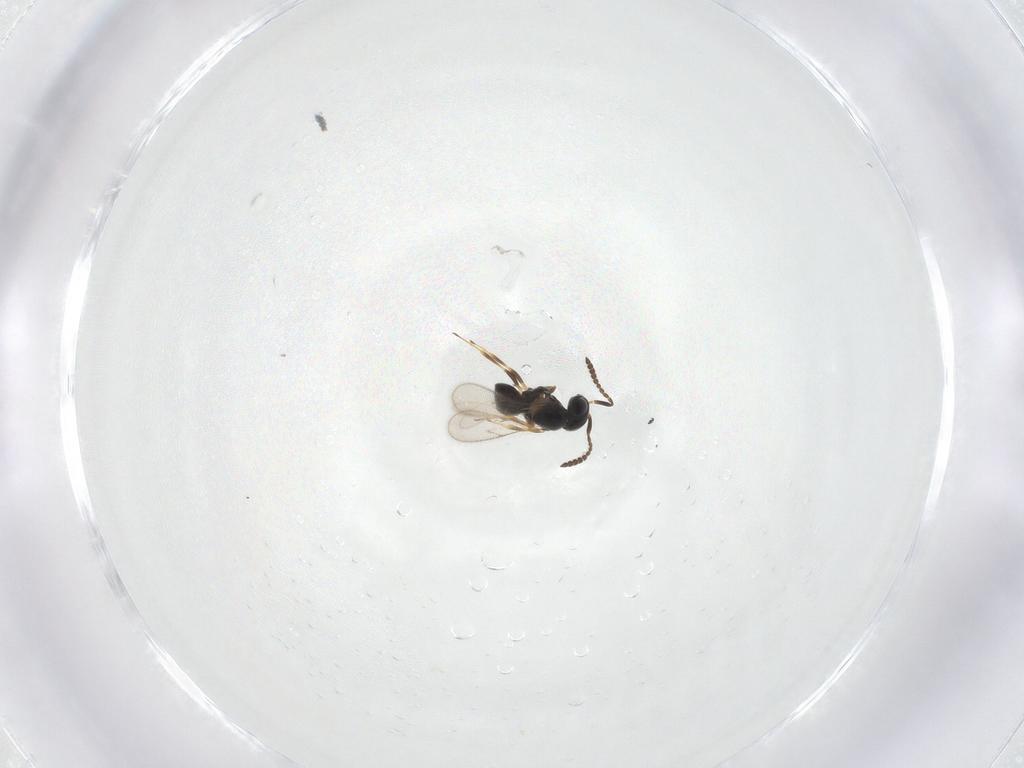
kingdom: Animalia
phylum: Arthropoda
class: Insecta
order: Hymenoptera
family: Scelionidae
